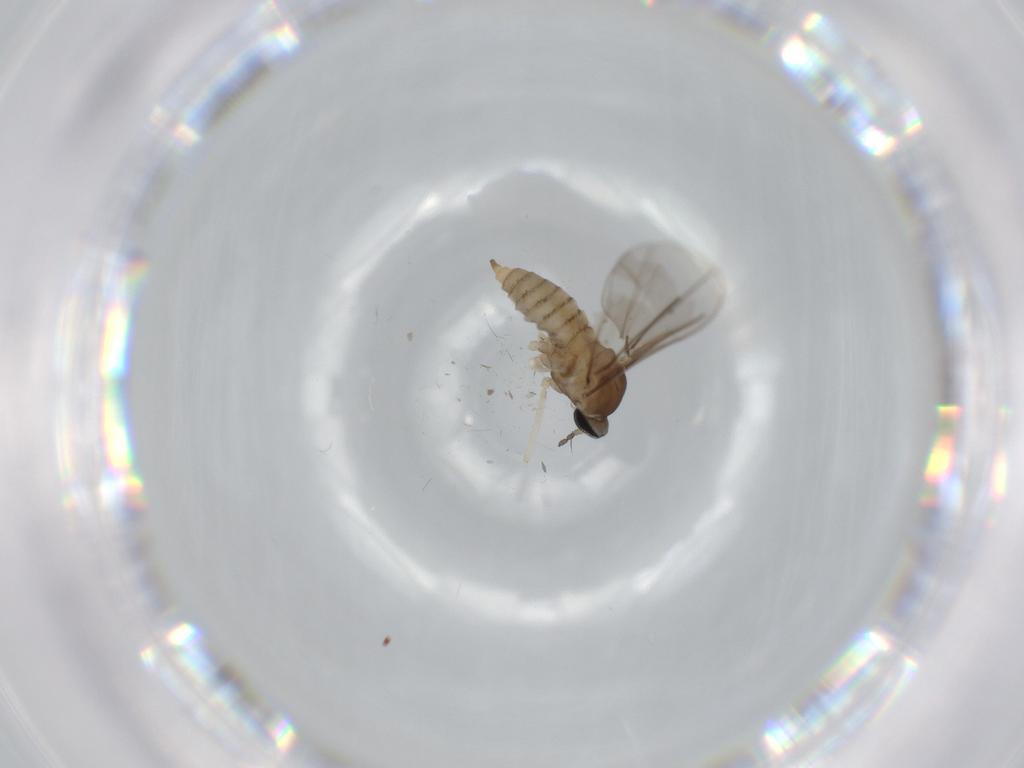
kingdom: Animalia
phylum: Arthropoda
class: Insecta
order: Diptera
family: Cecidomyiidae
